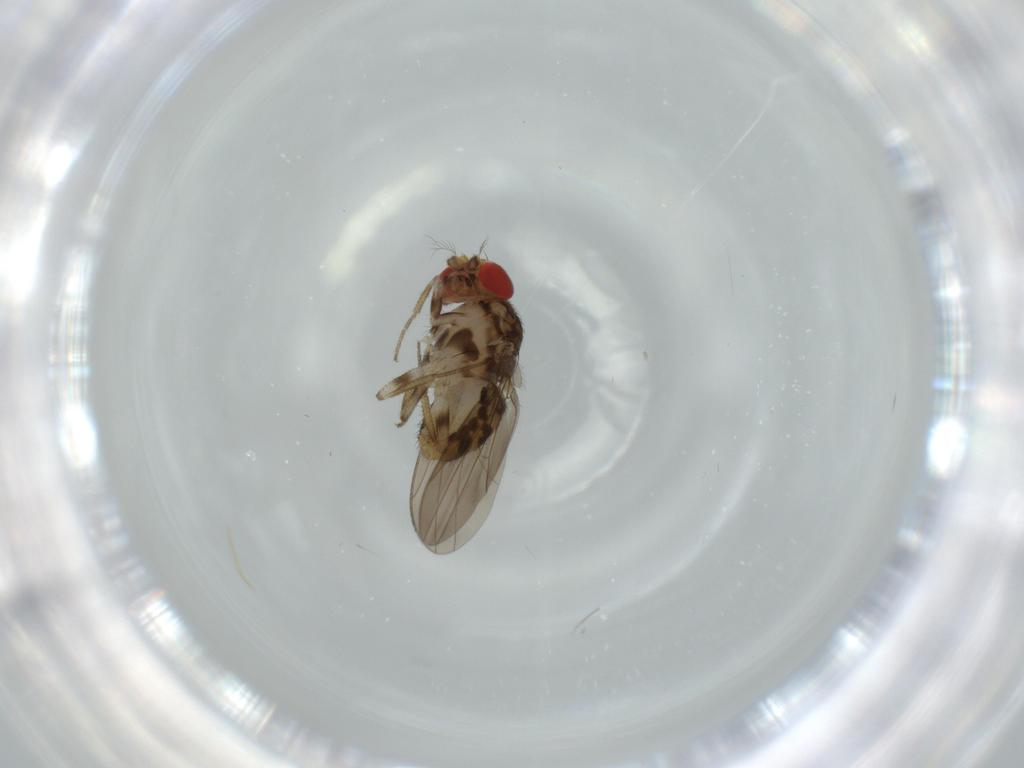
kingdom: Animalia
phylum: Arthropoda
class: Insecta
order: Diptera
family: Drosophilidae
